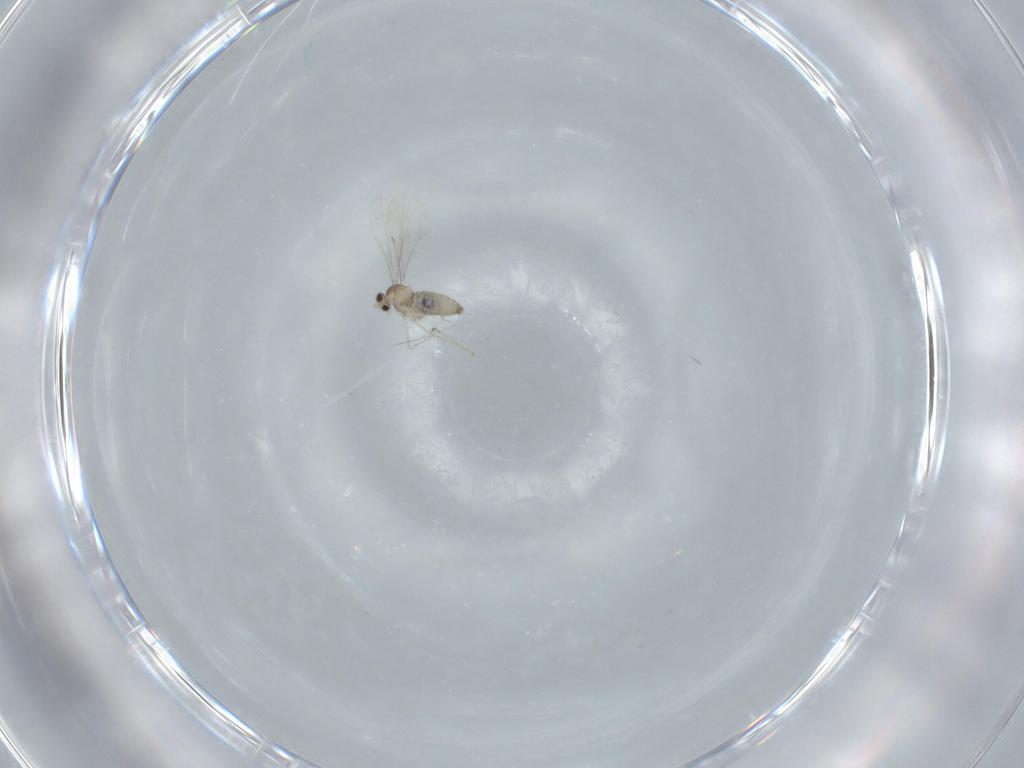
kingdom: Animalia
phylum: Arthropoda
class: Insecta
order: Diptera
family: Cecidomyiidae
